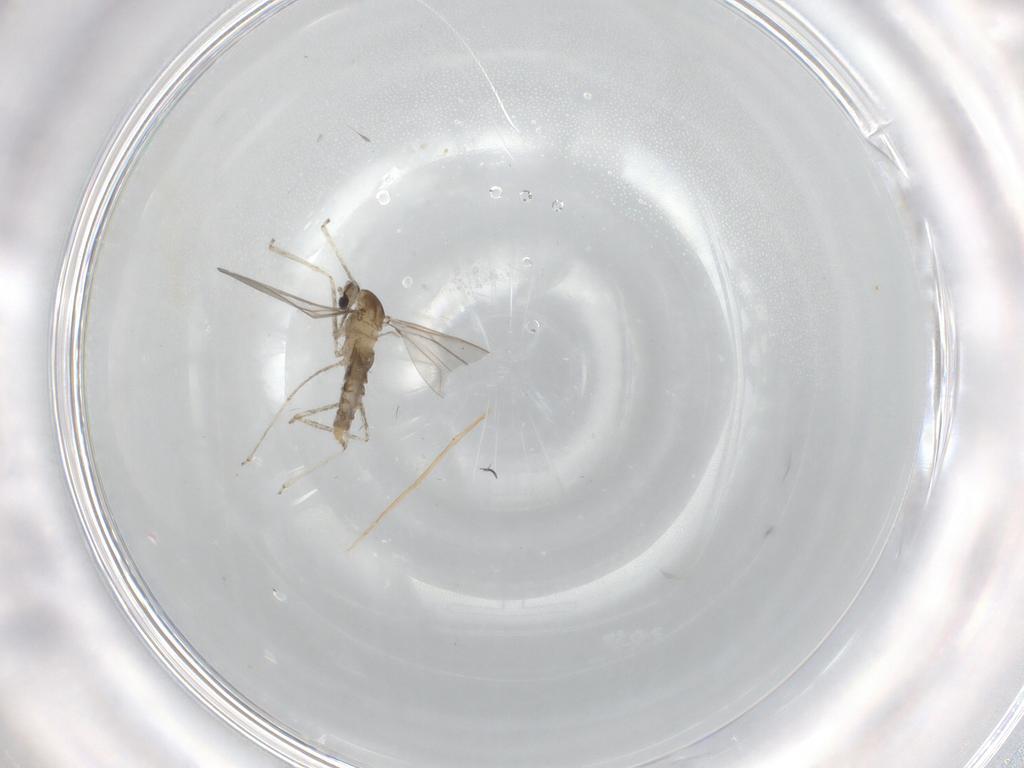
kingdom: Animalia
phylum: Arthropoda
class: Insecta
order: Diptera
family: Cecidomyiidae
